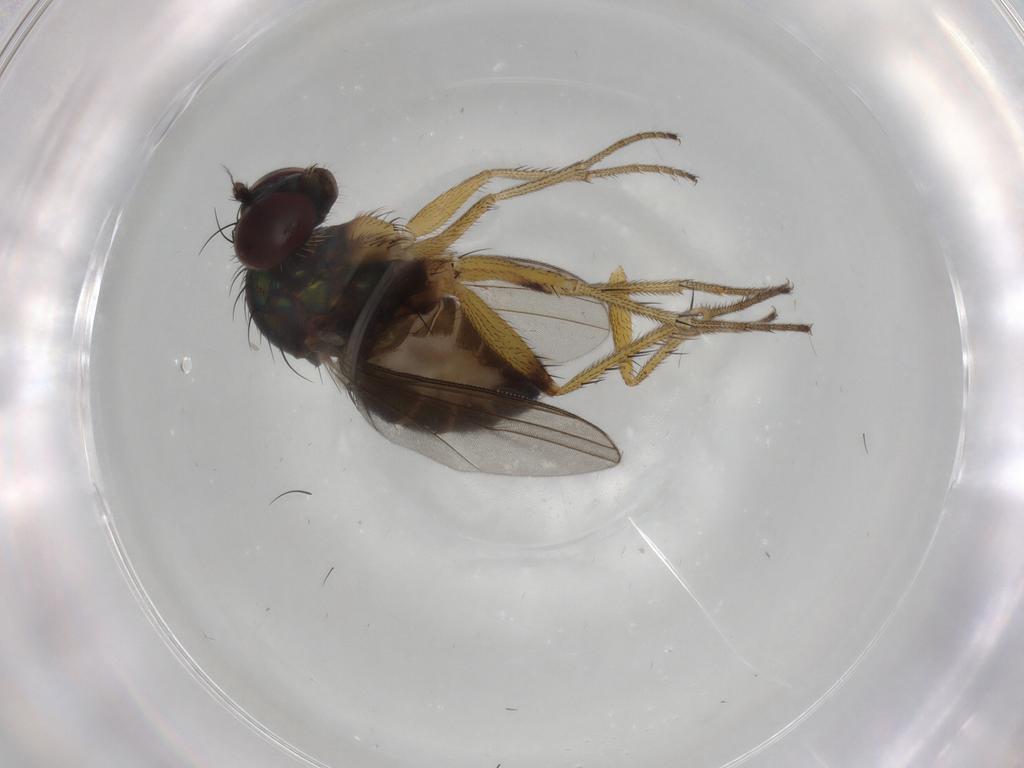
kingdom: Animalia
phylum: Arthropoda
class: Insecta
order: Diptera
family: Dolichopodidae
